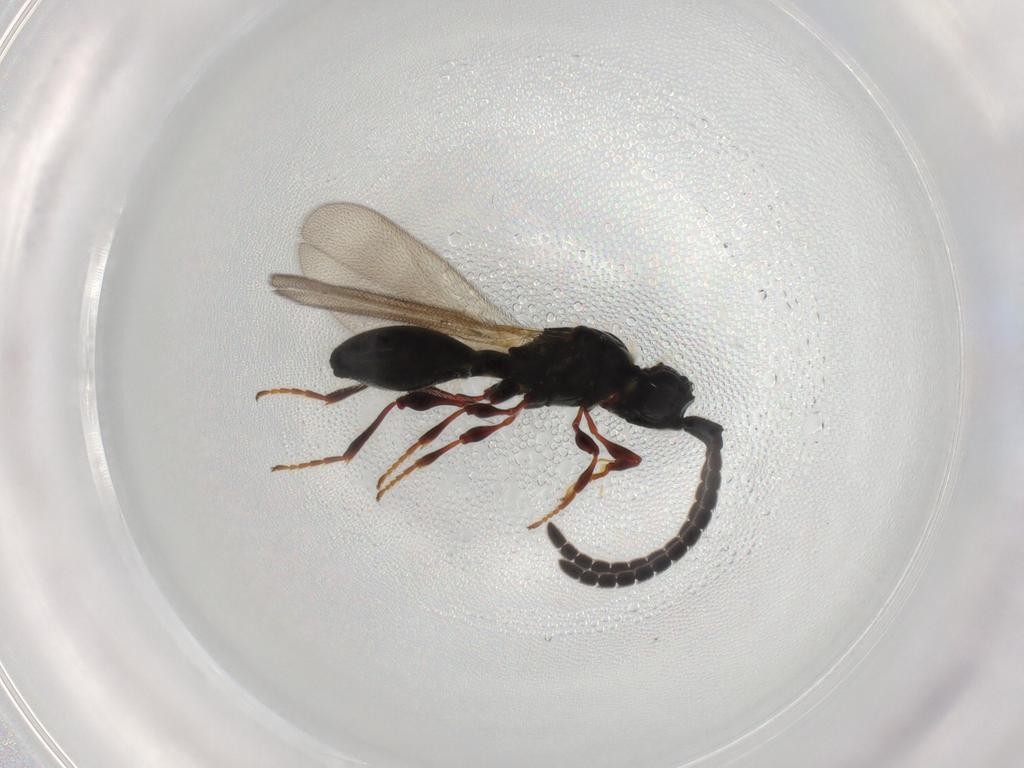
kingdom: Animalia
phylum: Arthropoda
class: Insecta
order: Hymenoptera
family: Diapriidae
